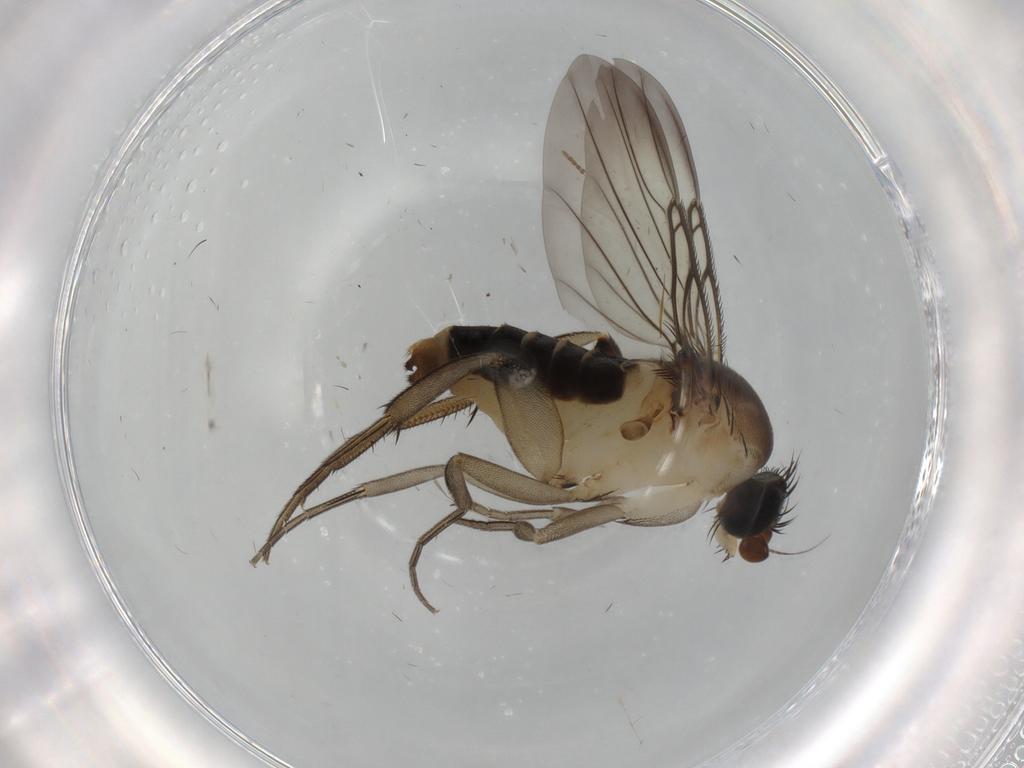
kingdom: Animalia
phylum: Arthropoda
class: Insecta
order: Diptera
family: Phoridae
